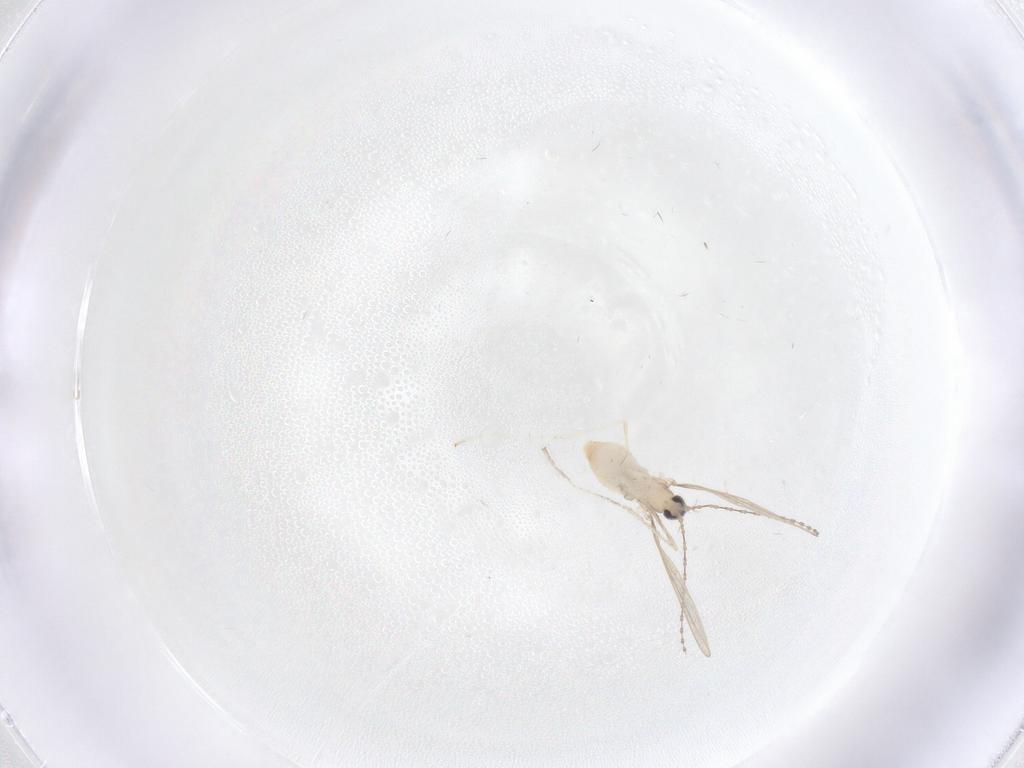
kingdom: Animalia
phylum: Arthropoda
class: Insecta
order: Diptera
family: Cecidomyiidae
